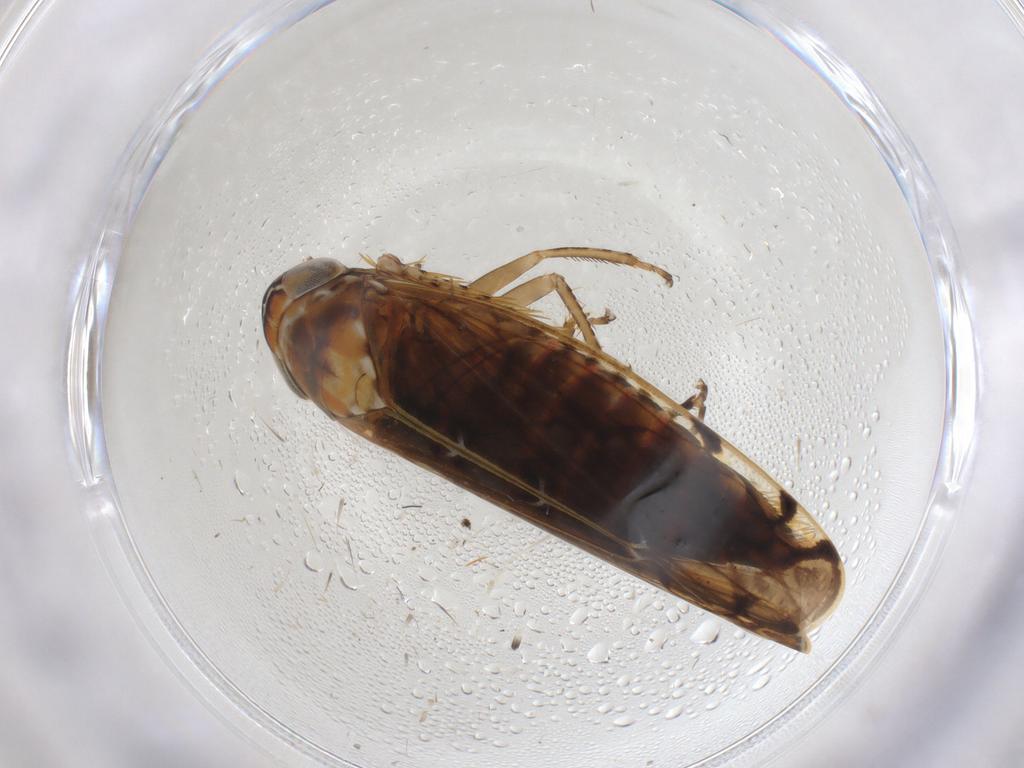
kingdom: Animalia
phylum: Arthropoda
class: Insecta
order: Hemiptera
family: Cicadellidae
